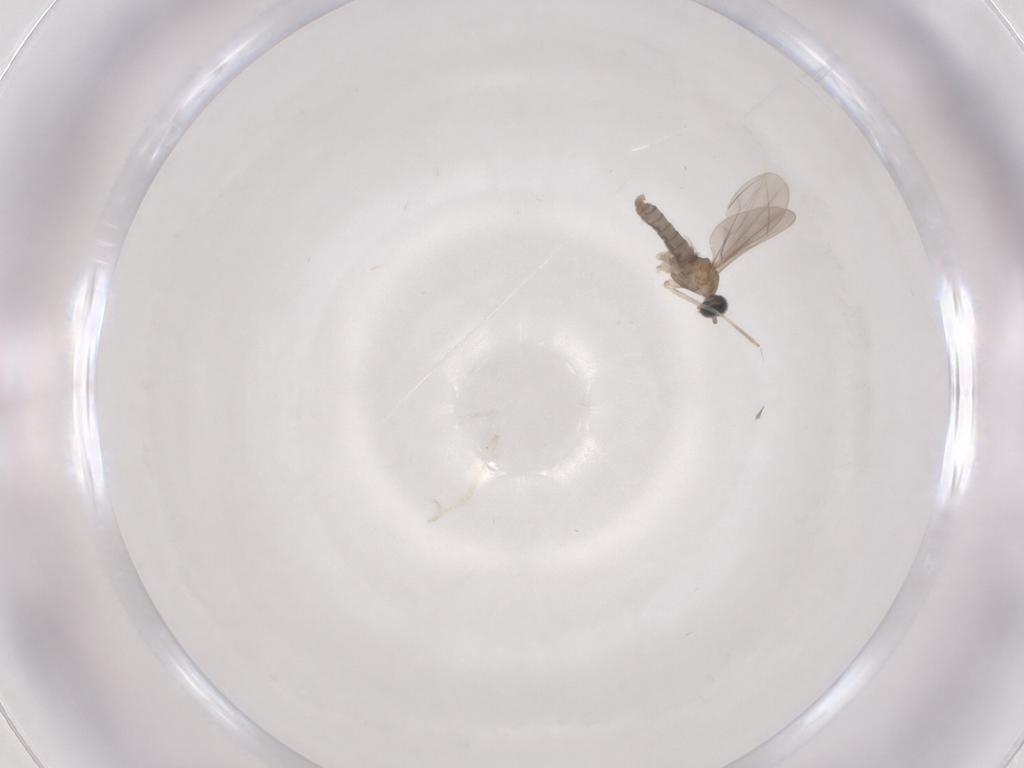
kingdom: Animalia
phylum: Arthropoda
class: Insecta
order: Diptera
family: Cecidomyiidae
